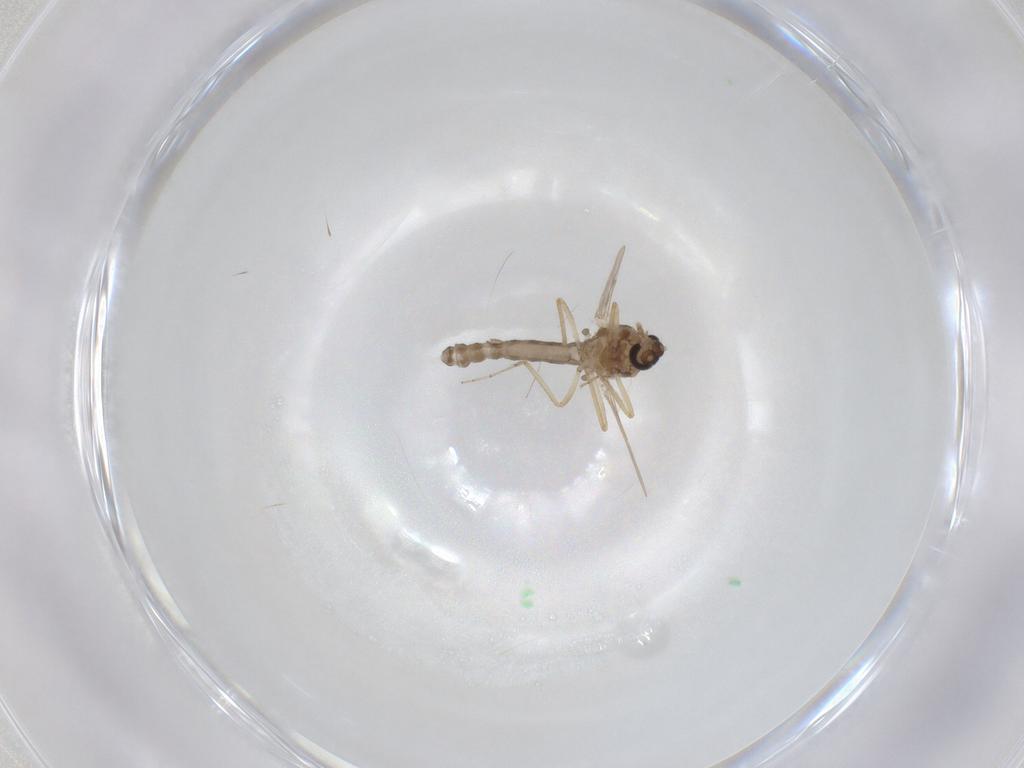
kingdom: Animalia
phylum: Arthropoda
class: Insecta
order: Diptera
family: Ceratopogonidae
